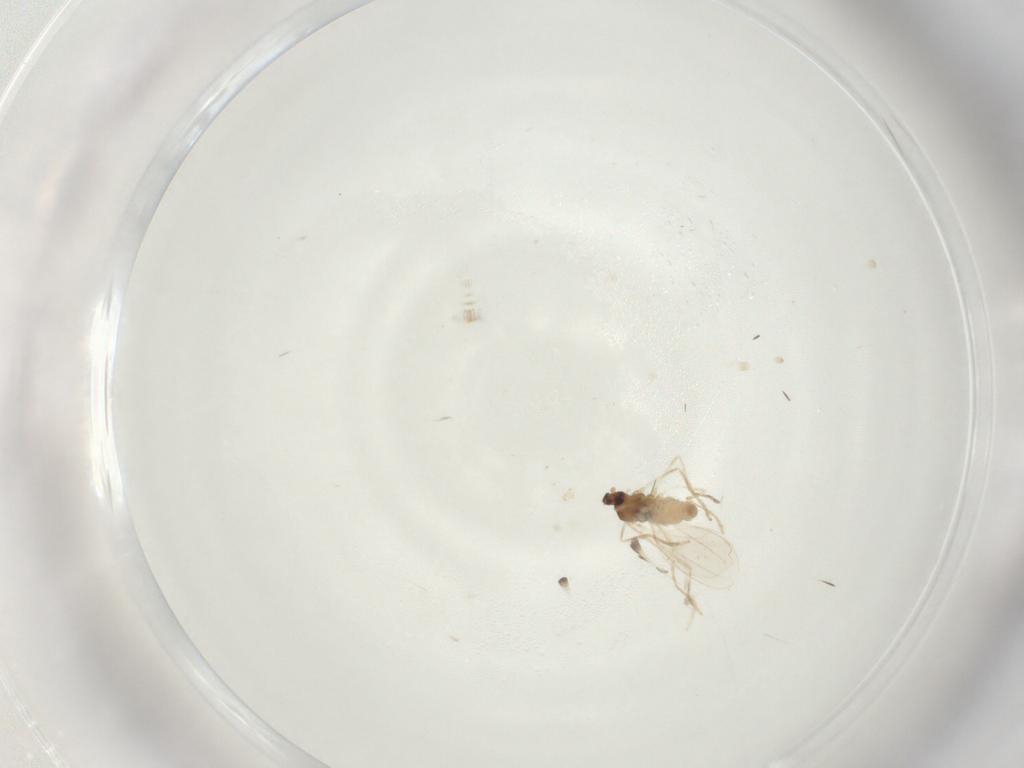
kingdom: Animalia
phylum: Arthropoda
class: Insecta
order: Diptera
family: Cecidomyiidae
